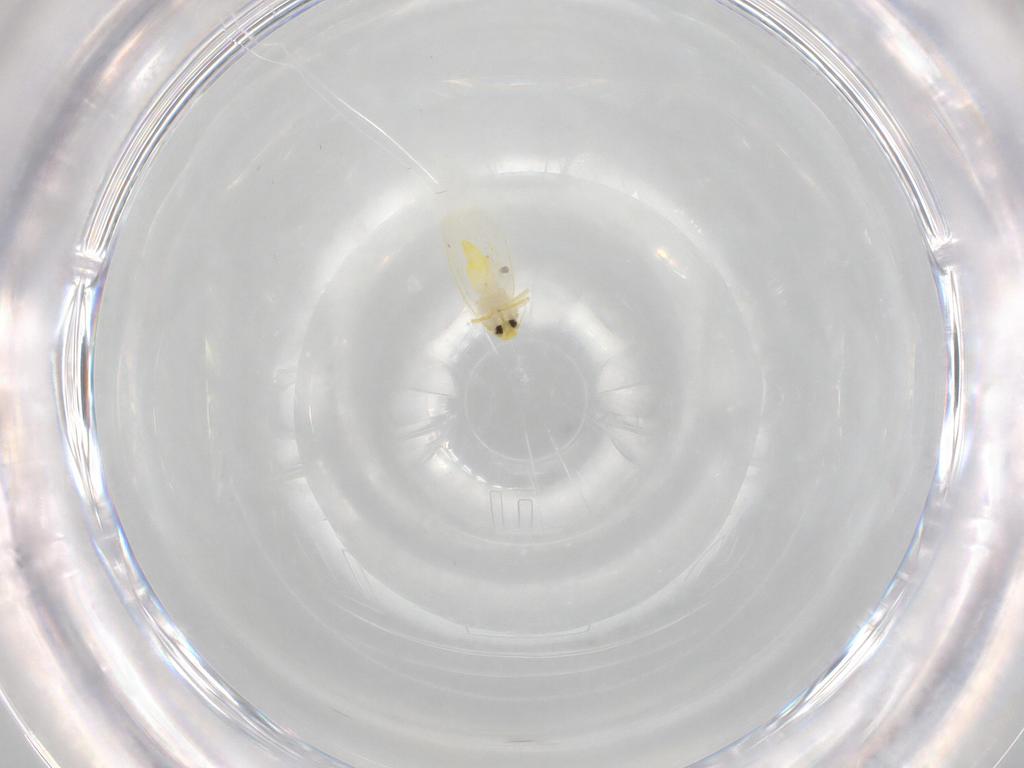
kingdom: Animalia
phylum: Arthropoda
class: Insecta
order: Hemiptera
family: Aleyrodidae
